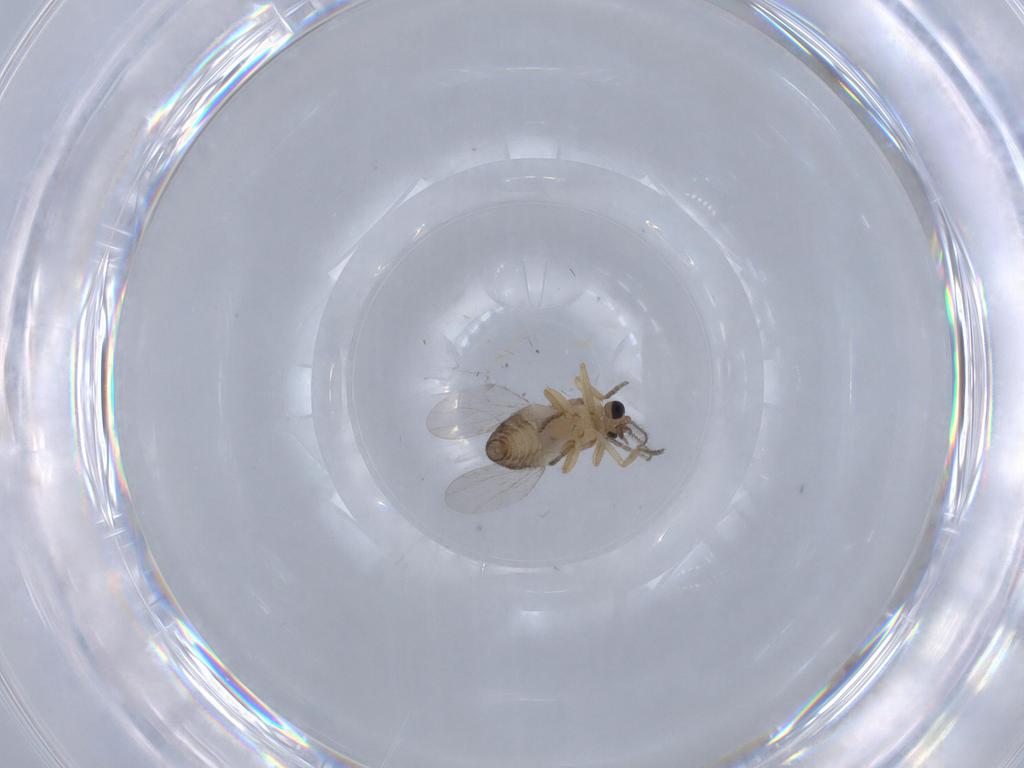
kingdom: Animalia
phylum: Arthropoda
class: Insecta
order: Diptera
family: Ceratopogonidae
